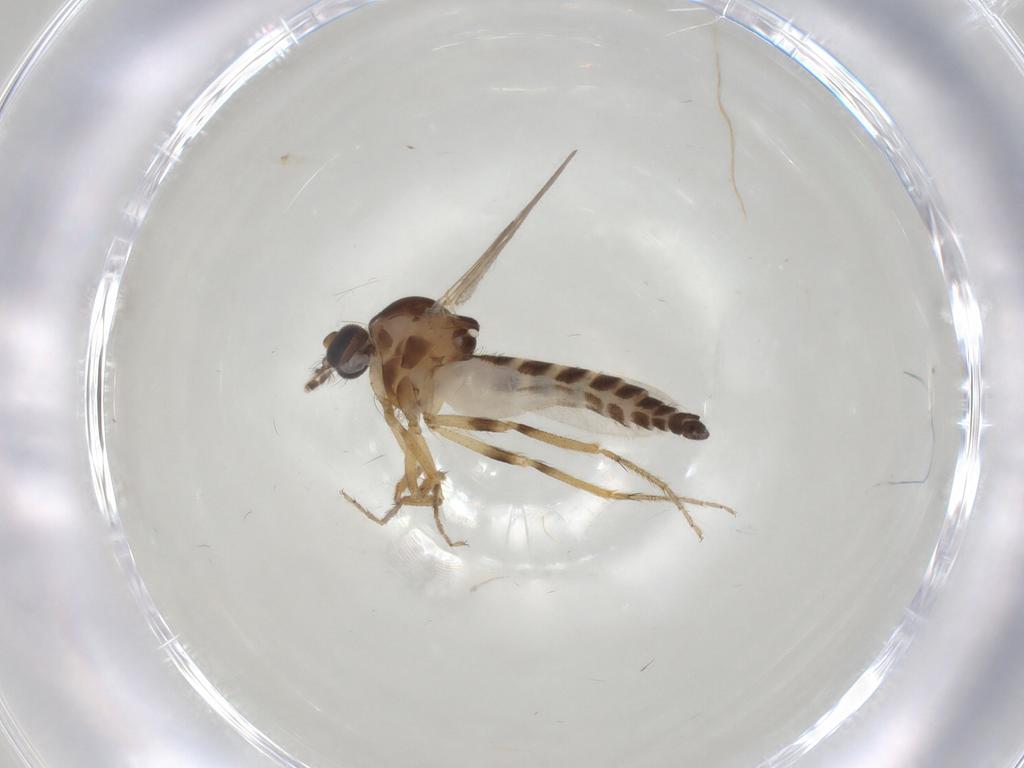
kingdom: Animalia
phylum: Arthropoda
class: Insecta
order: Diptera
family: Ceratopogonidae
